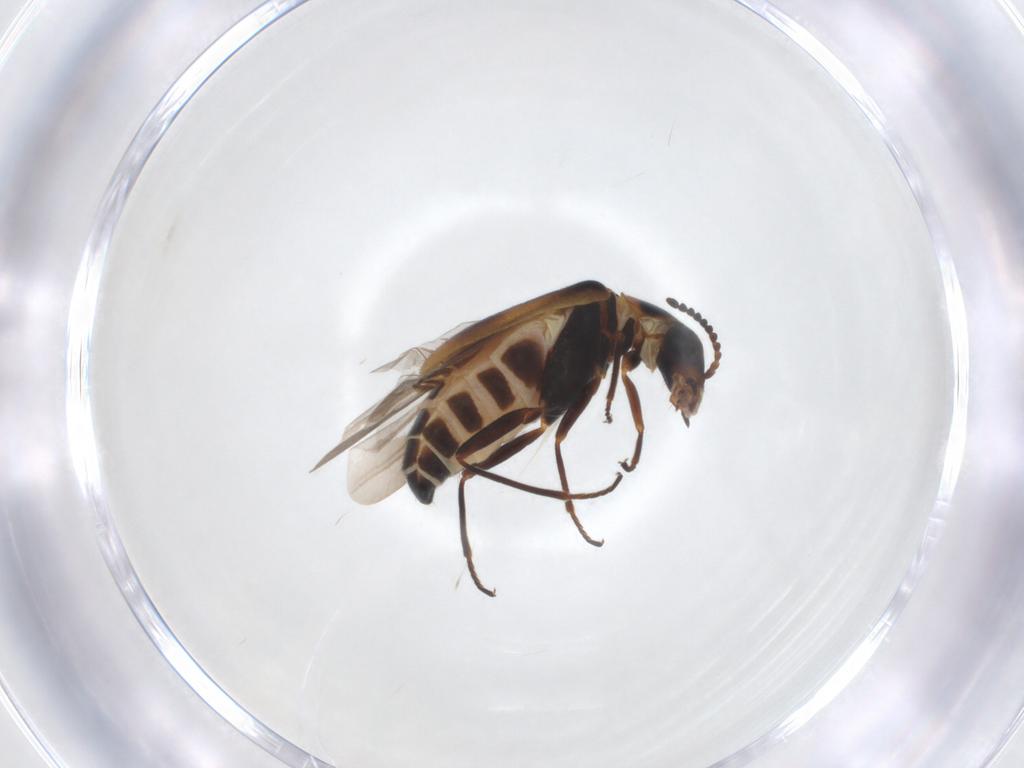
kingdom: Animalia
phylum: Arthropoda
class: Insecta
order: Coleoptera
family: Melyridae
